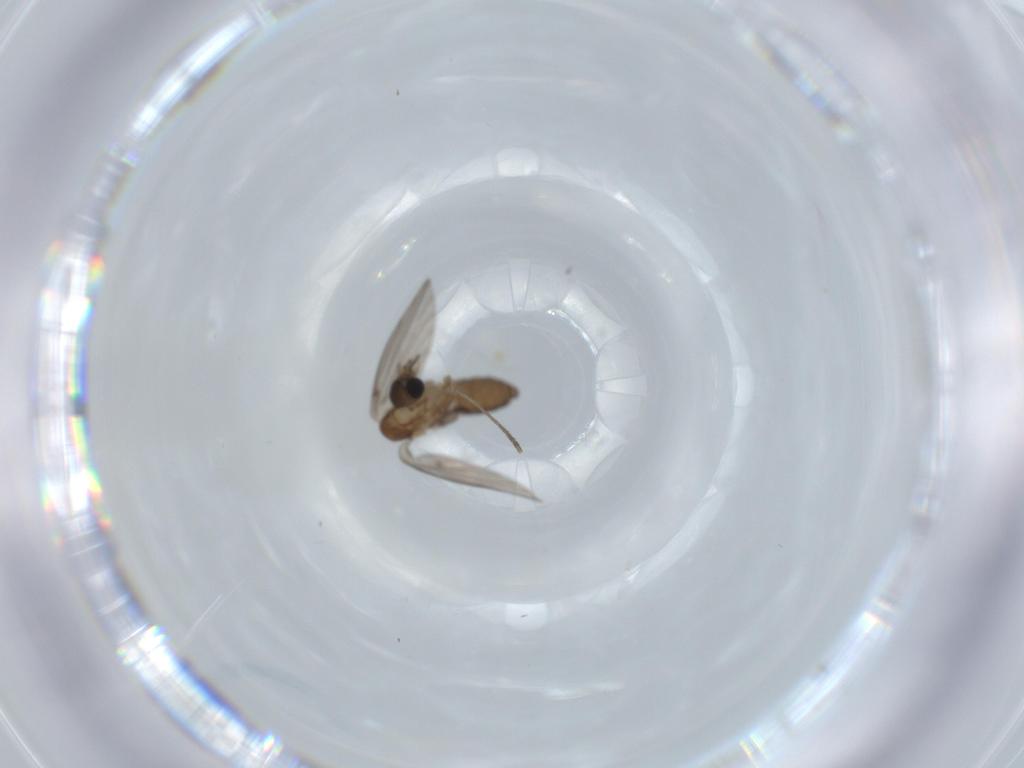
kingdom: Animalia
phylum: Arthropoda
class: Insecta
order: Diptera
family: Psychodidae
